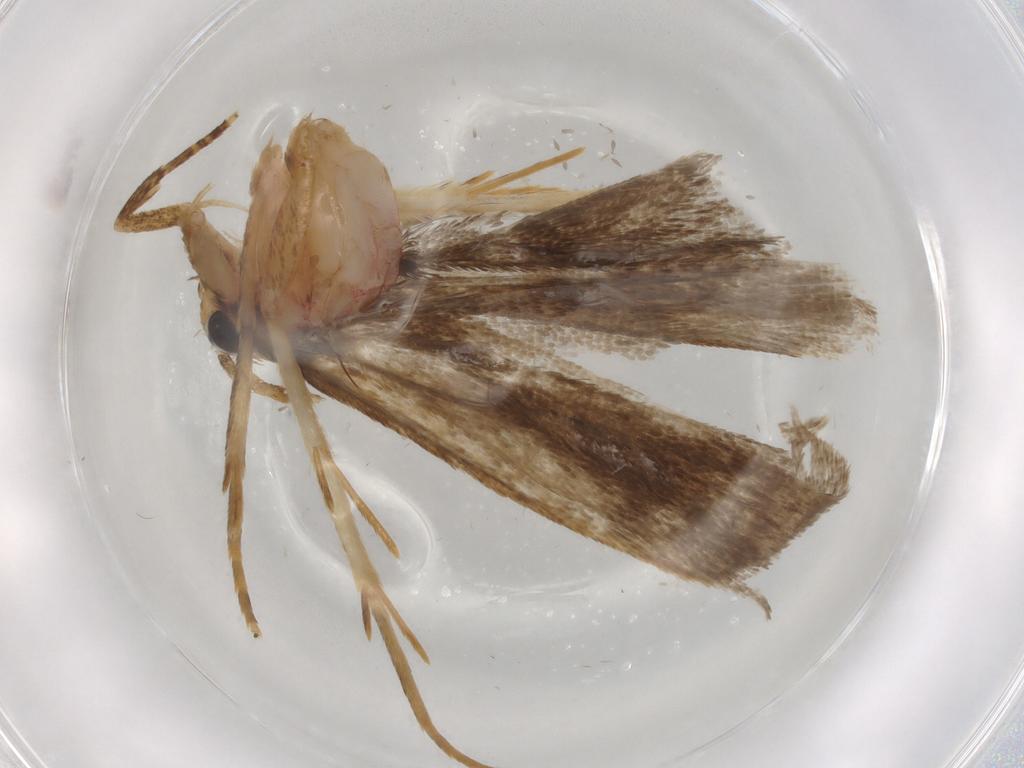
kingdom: Animalia
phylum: Arthropoda
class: Insecta
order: Lepidoptera
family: Autostichidae
